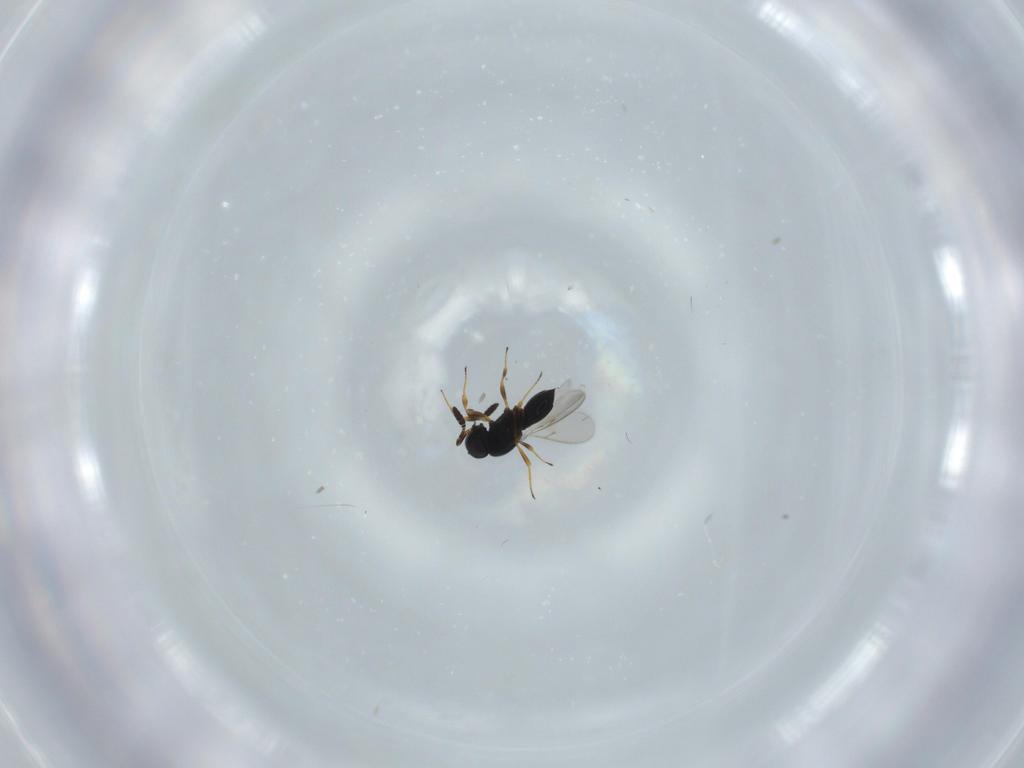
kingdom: Animalia
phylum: Arthropoda
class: Insecta
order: Hymenoptera
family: Scelionidae
